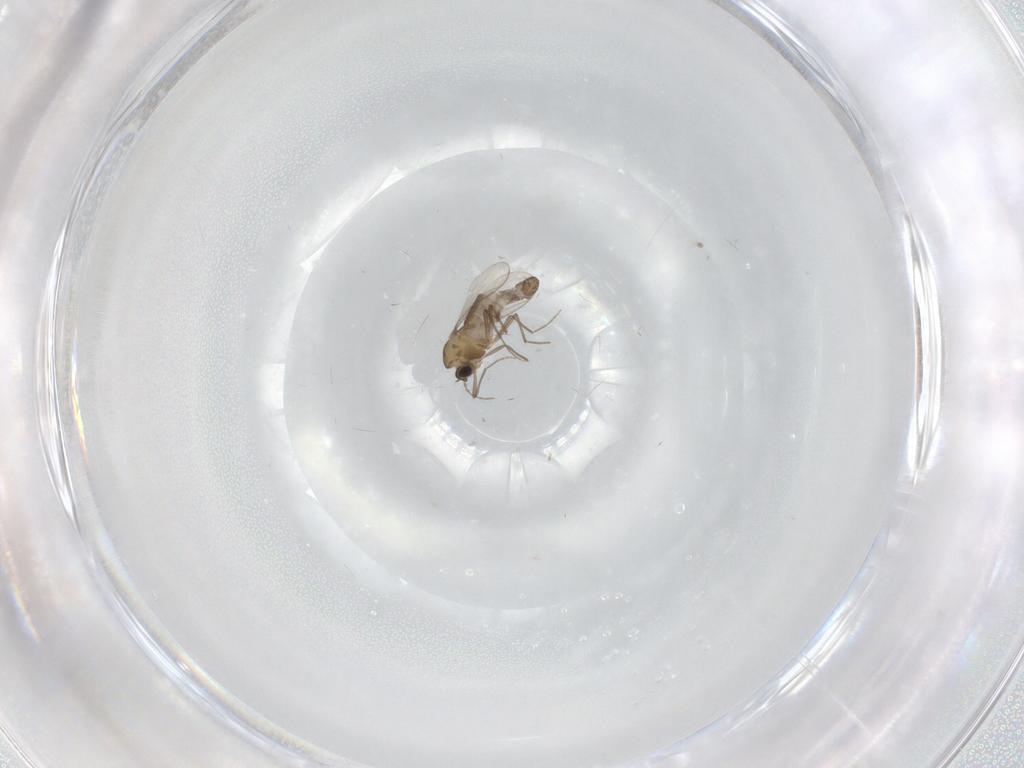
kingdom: Animalia
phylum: Arthropoda
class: Insecta
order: Diptera
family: Chironomidae
